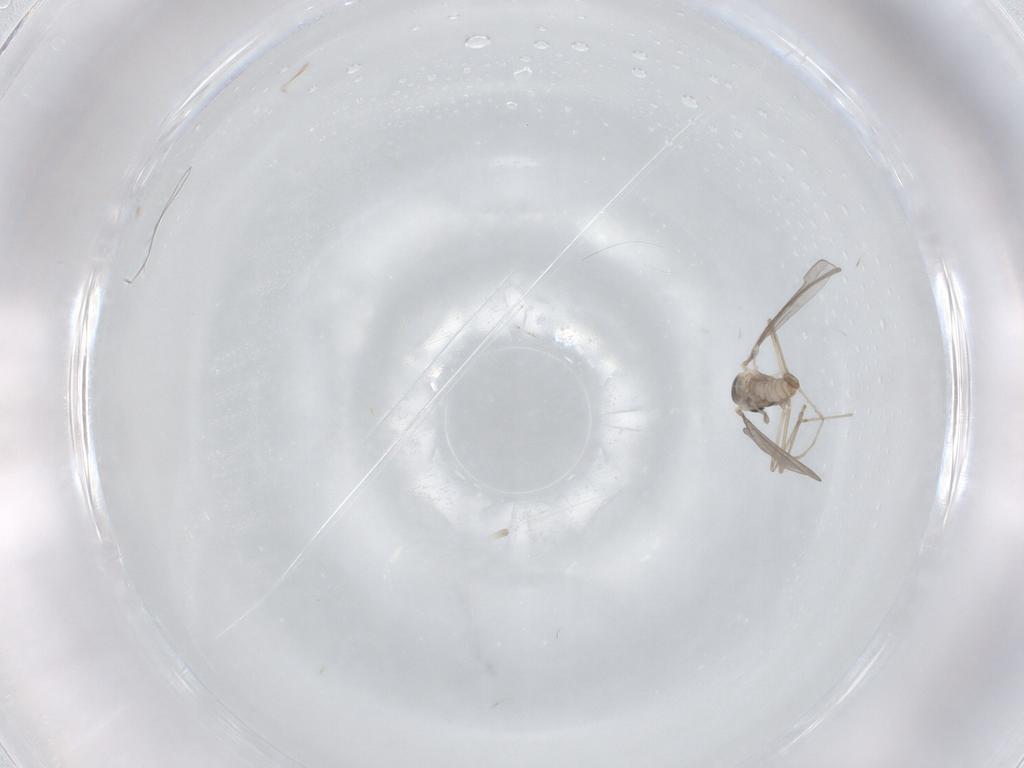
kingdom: Animalia
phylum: Arthropoda
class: Insecta
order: Diptera
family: Cecidomyiidae
